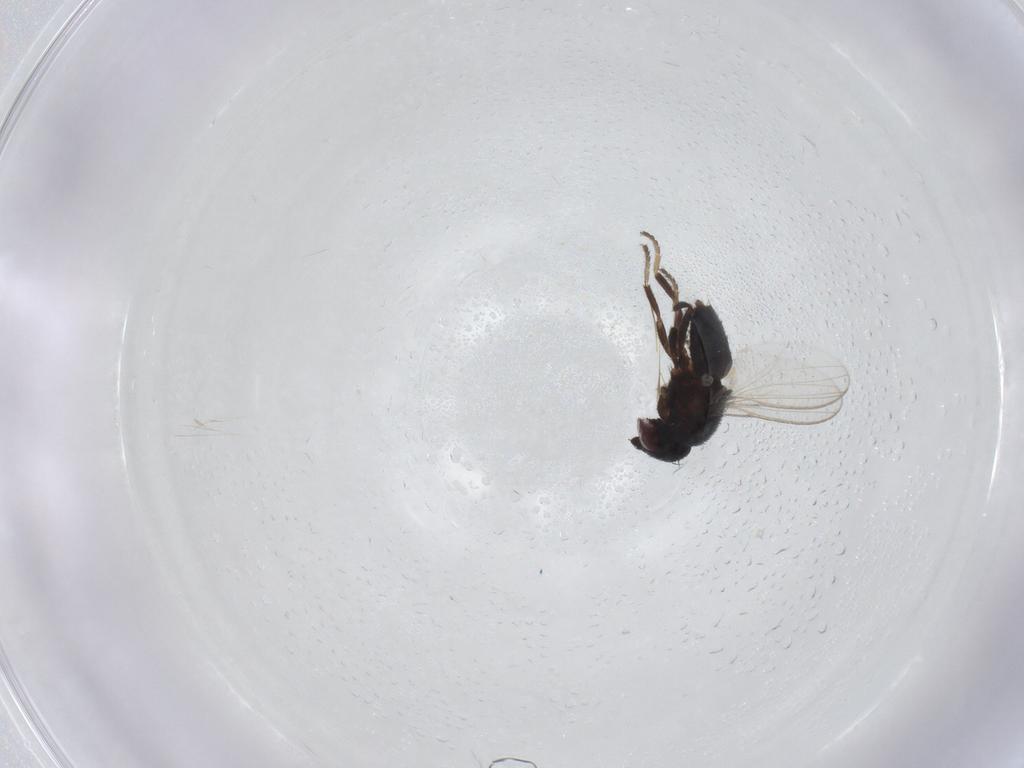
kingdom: Animalia
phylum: Arthropoda
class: Insecta
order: Diptera
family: Milichiidae
